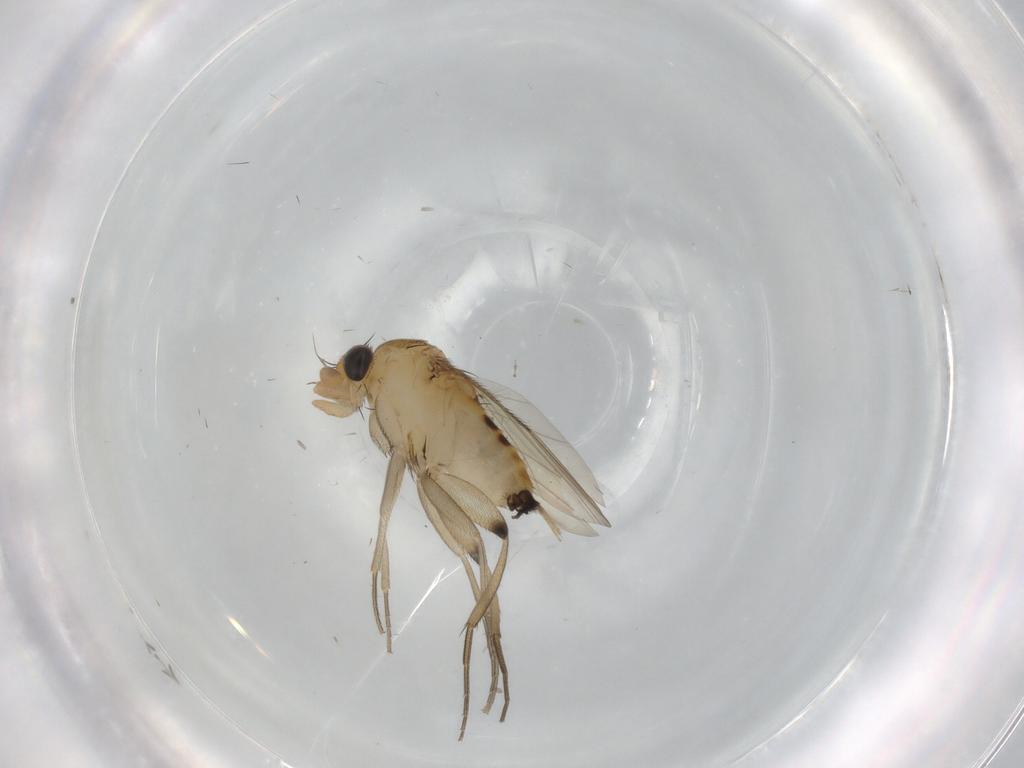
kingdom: Animalia
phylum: Arthropoda
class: Insecta
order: Diptera
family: Phoridae
